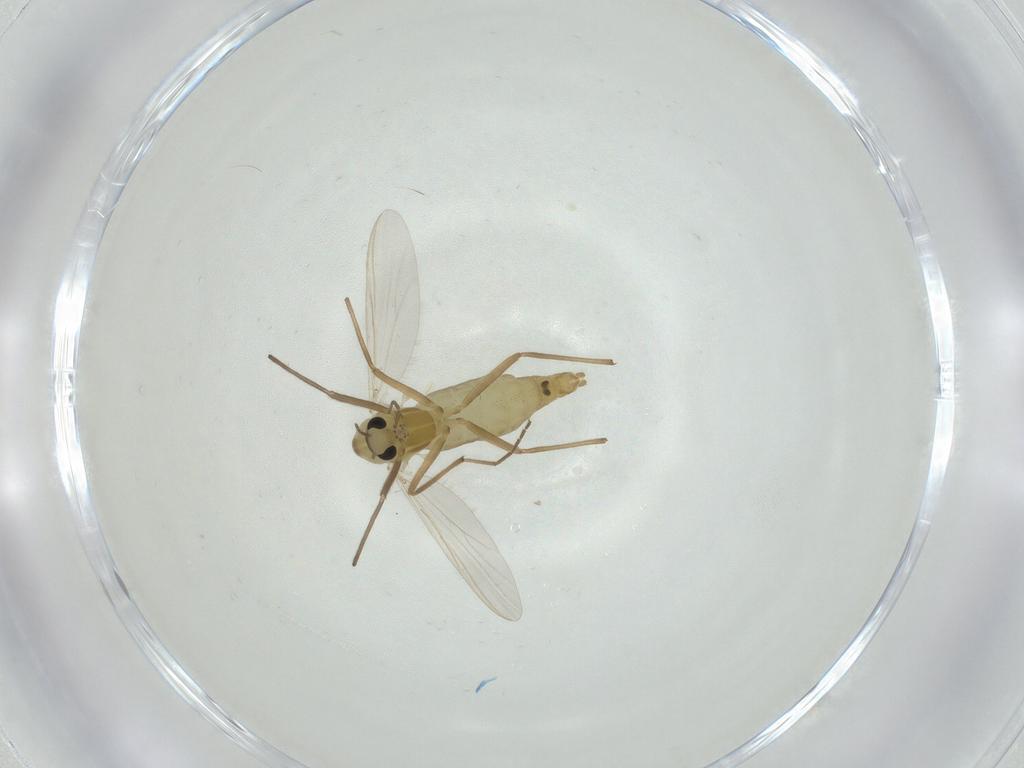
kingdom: Animalia
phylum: Arthropoda
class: Insecta
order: Diptera
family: Chironomidae
